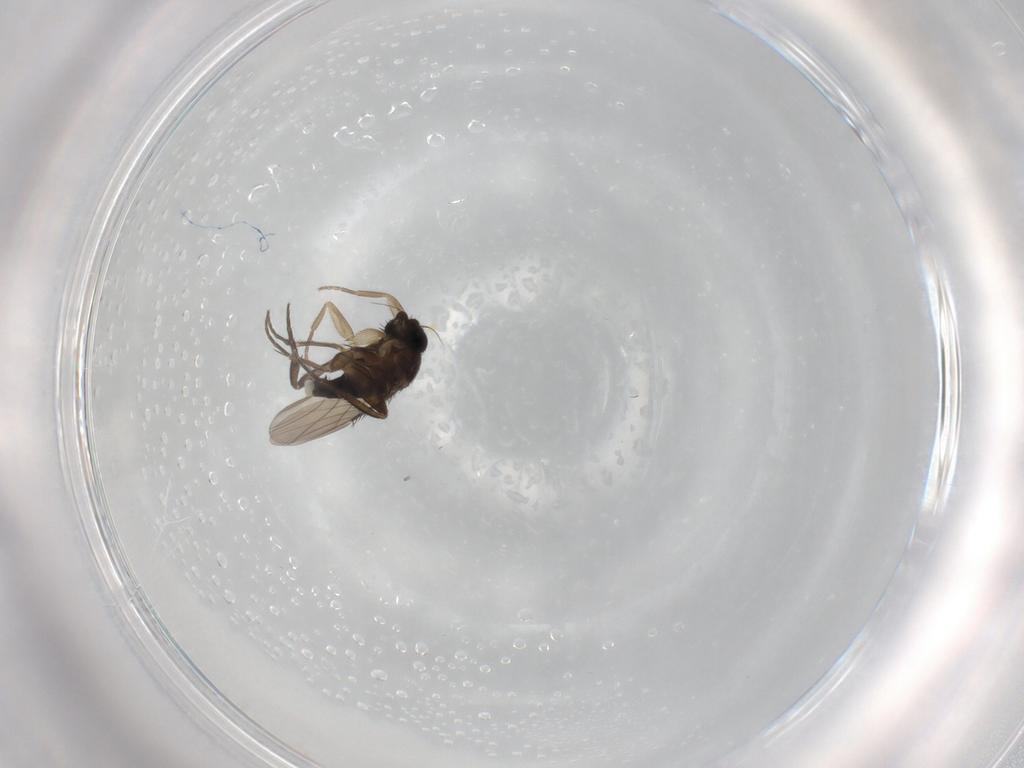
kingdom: Animalia
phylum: Arthropoda
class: Insecta
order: Diptera
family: Phoridae
